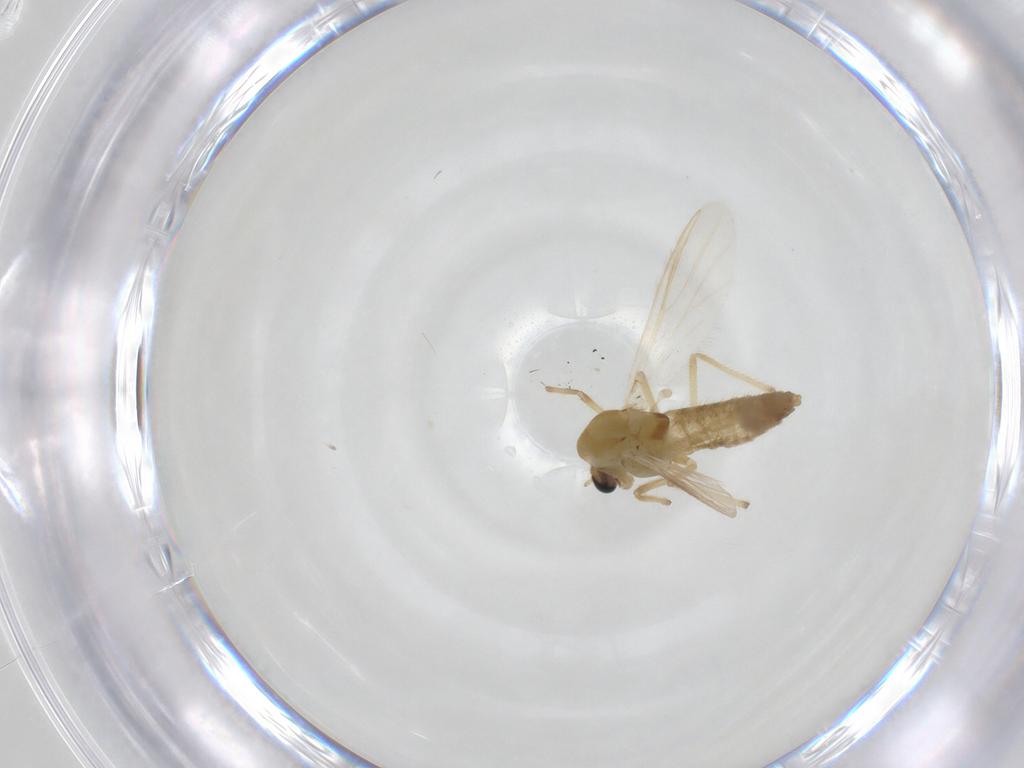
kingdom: Animalia
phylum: Arthropoda
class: Insecta
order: Diptera
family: Chironomidae
